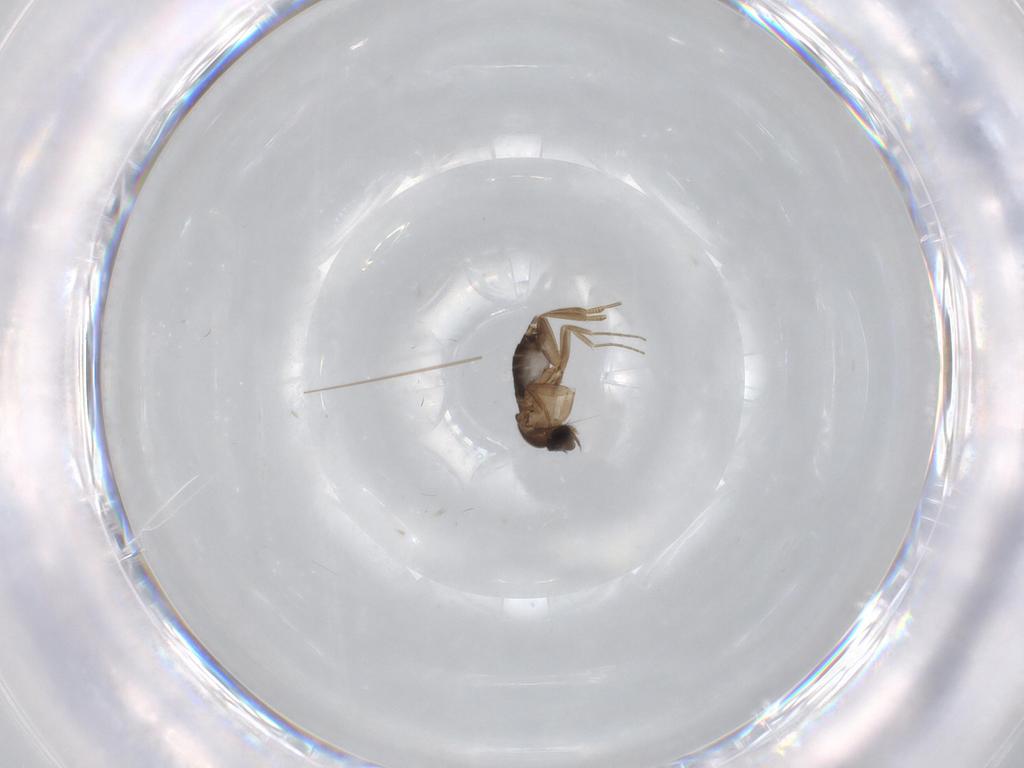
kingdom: Animalia
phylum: Arthropoda
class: Insecta
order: Diptera
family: Phoridae
